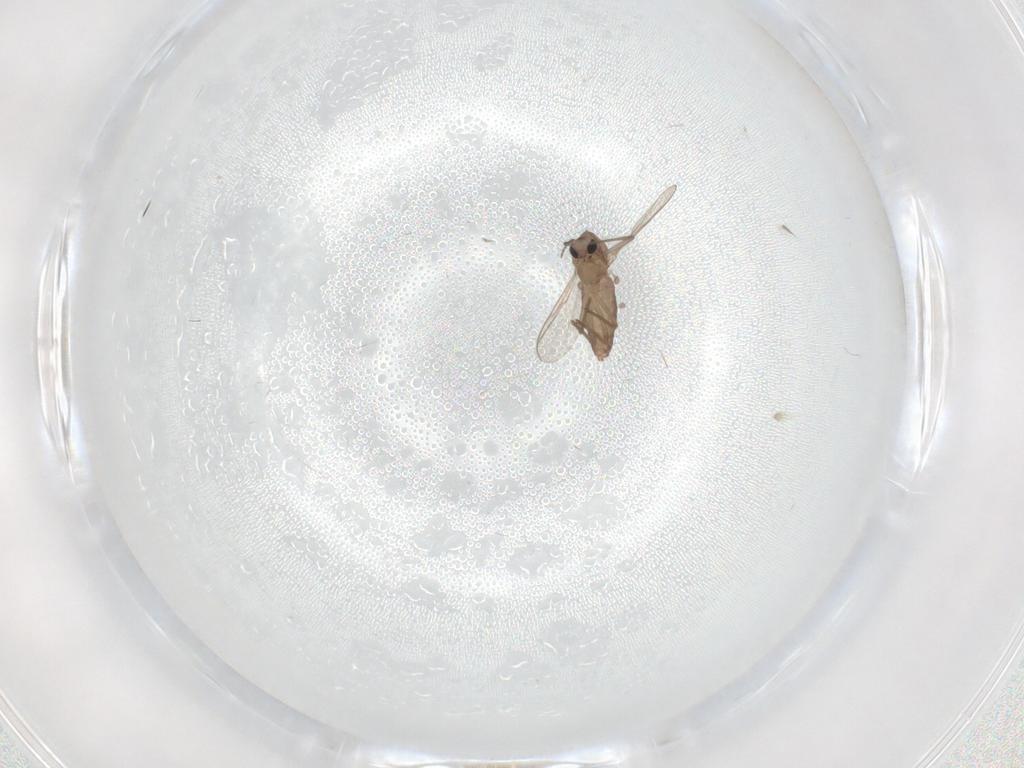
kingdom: Animalia
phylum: Arthropoda
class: Insecta
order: Diptera
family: Chironomidae
